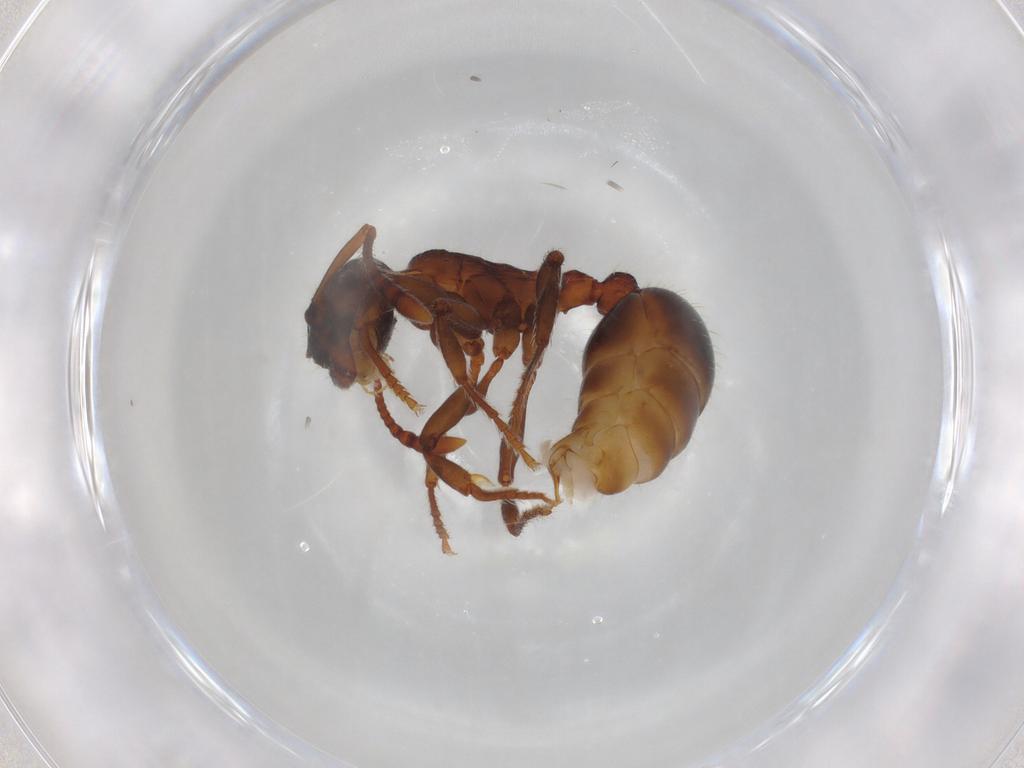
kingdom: Animalia
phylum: Arthropoda
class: Insecta
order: Hymenoptera
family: Formicidae
